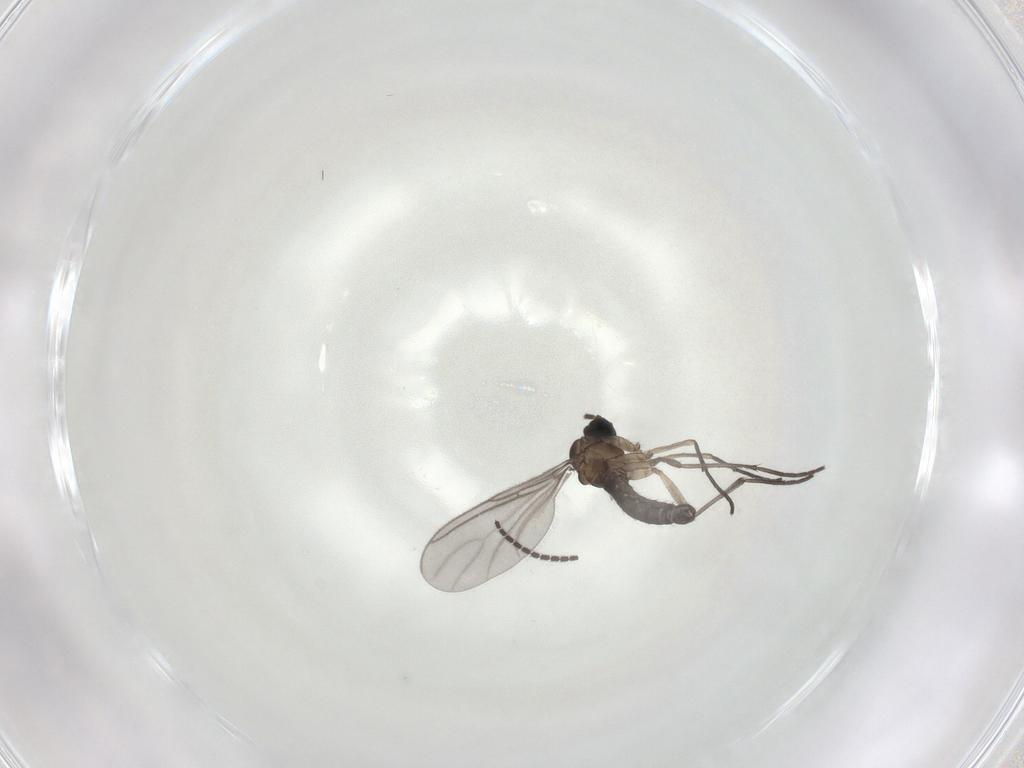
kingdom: Animalia
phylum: Arthropoda
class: Insecta
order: Diptera
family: Sciaridae
